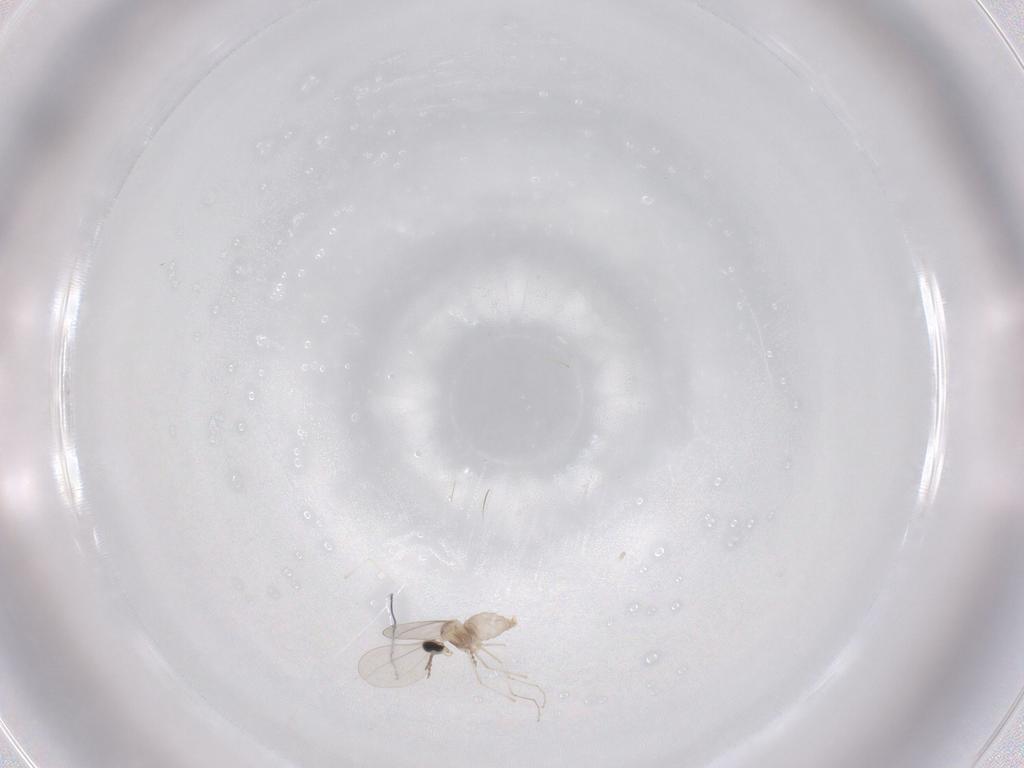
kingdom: Animalia
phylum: Arthropoda
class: Insecta
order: Diptera
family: Cecidomyiidae
